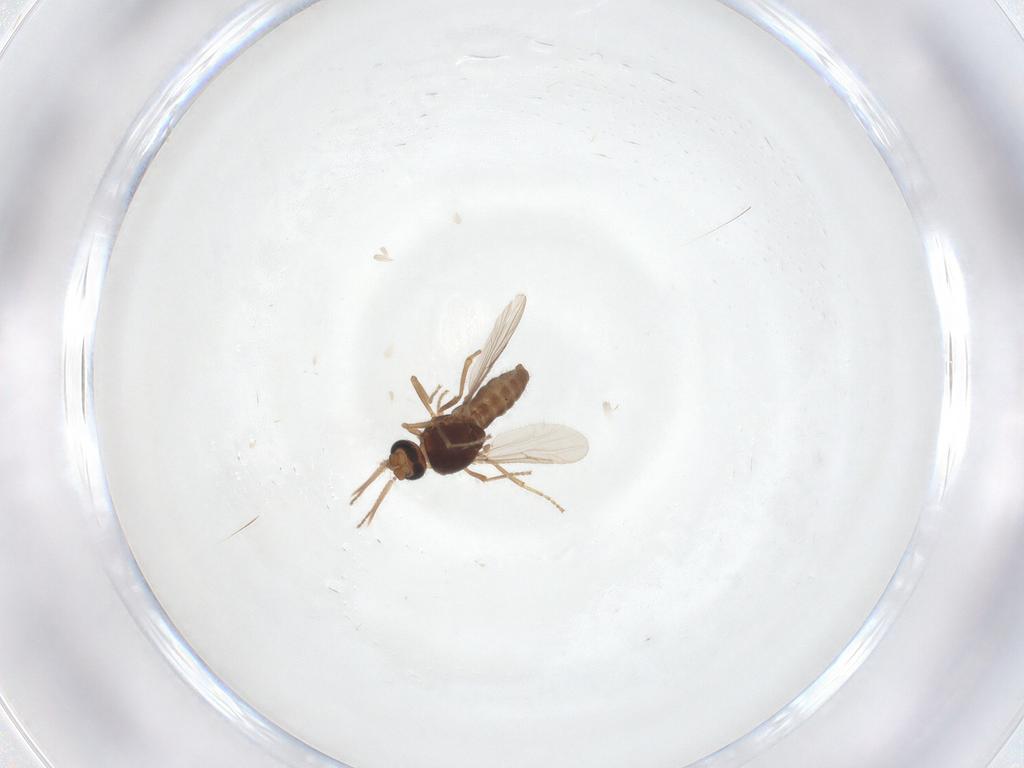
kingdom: Animalia
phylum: Arthropoda
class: Insecta
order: Diptera
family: Ceratopogonidae
